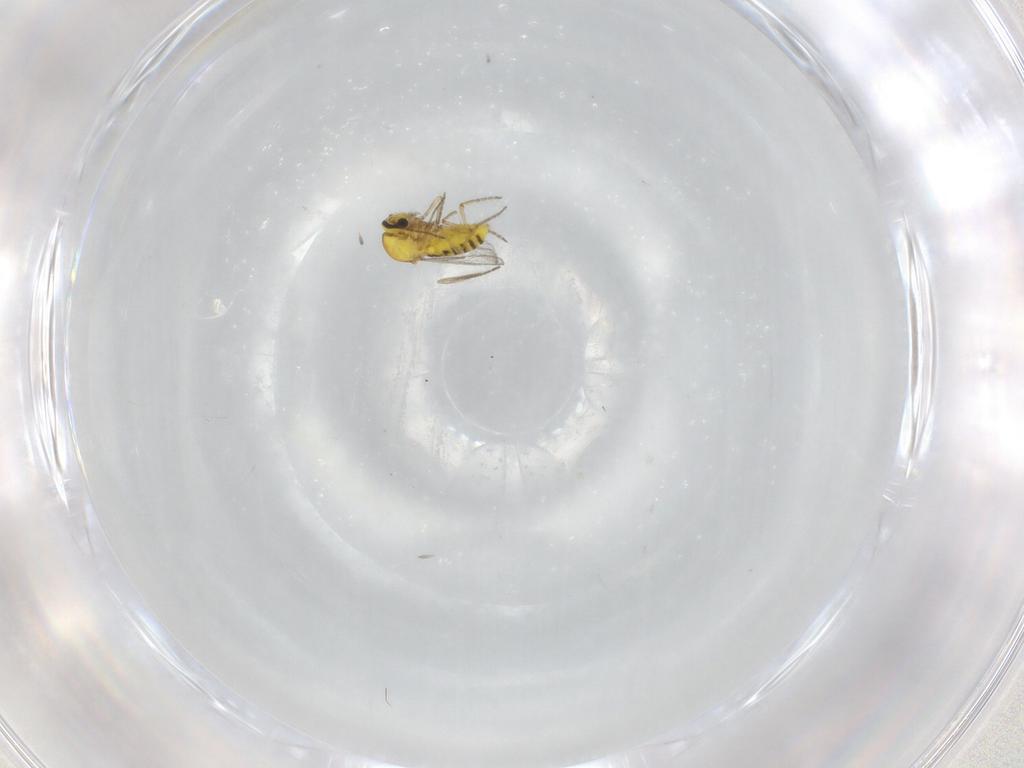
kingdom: Animalia
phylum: Arthropoda
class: Insecta
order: Diptera
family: Ceratopogonidae
